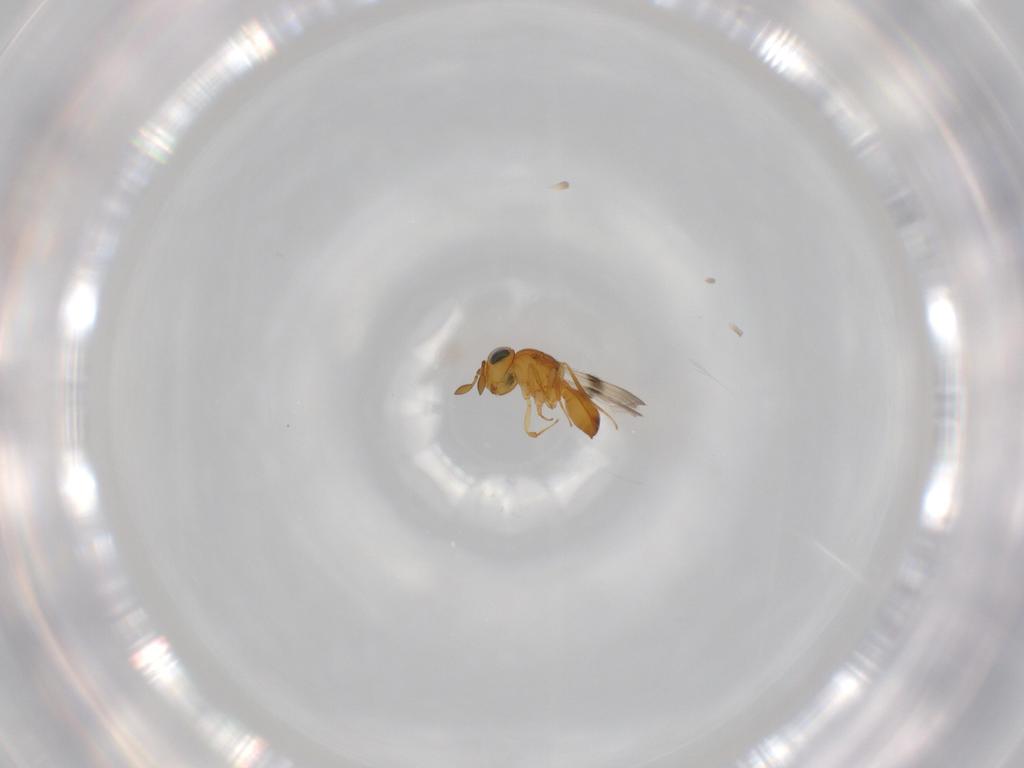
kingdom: Animalia
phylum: Arthropoda
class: Insecta
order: Hymenoptera
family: Scelionidae
